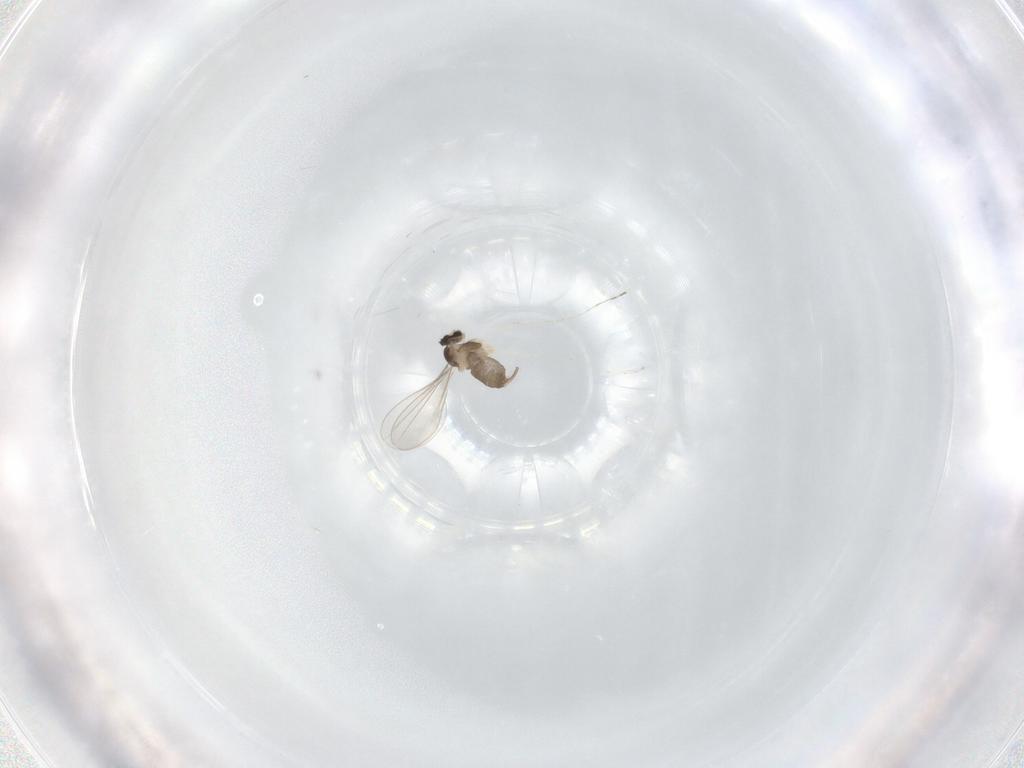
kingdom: Animalia
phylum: Arthropoda
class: Insecta
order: Diptera
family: Cecidomyiidae
